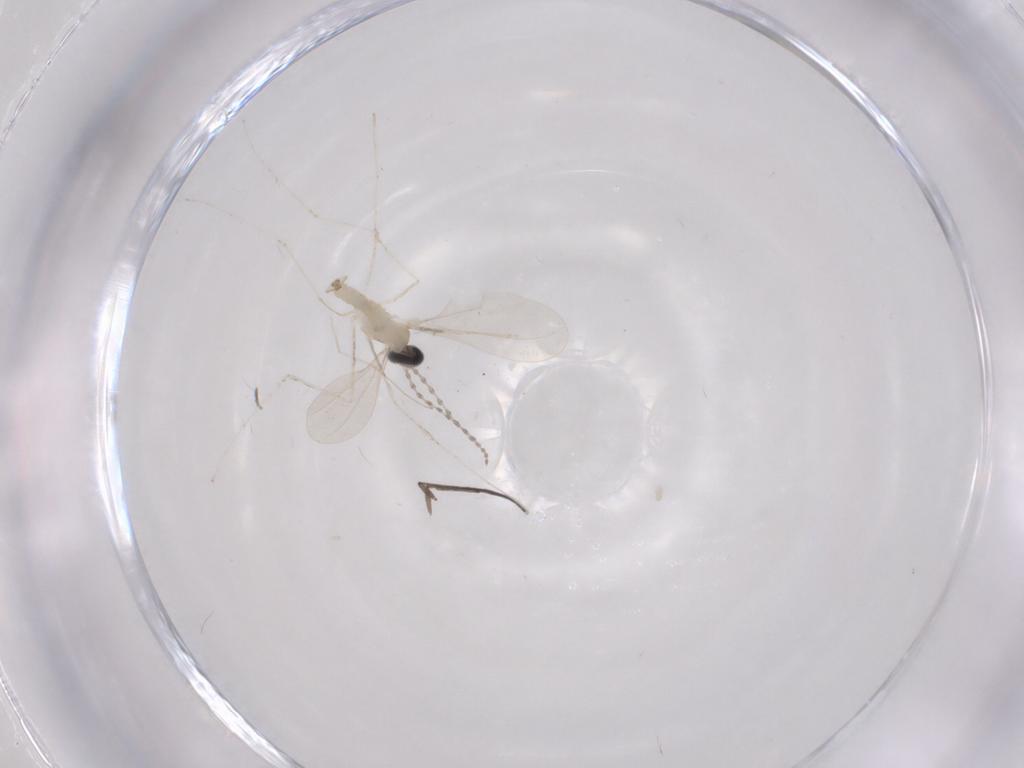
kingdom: Animalia
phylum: Arthropoda
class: Insecta
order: Diptera
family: Cecidomyiidae
